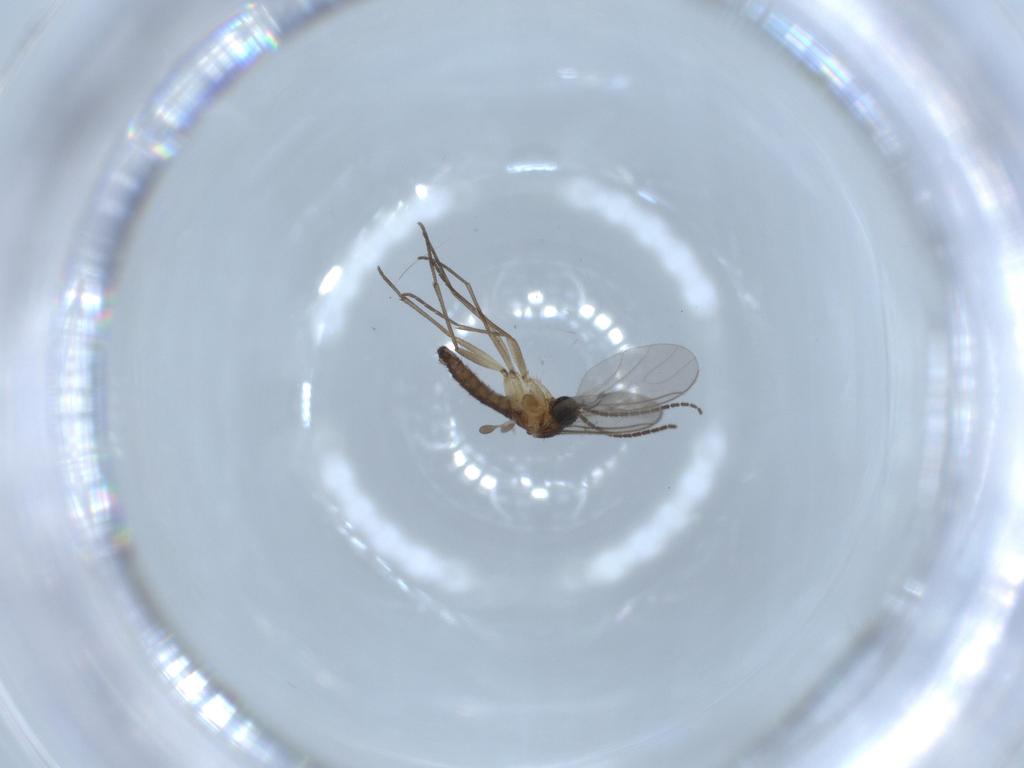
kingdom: Animalia
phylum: Arthropoda
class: Insecta
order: Diptera
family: Sciaridae
